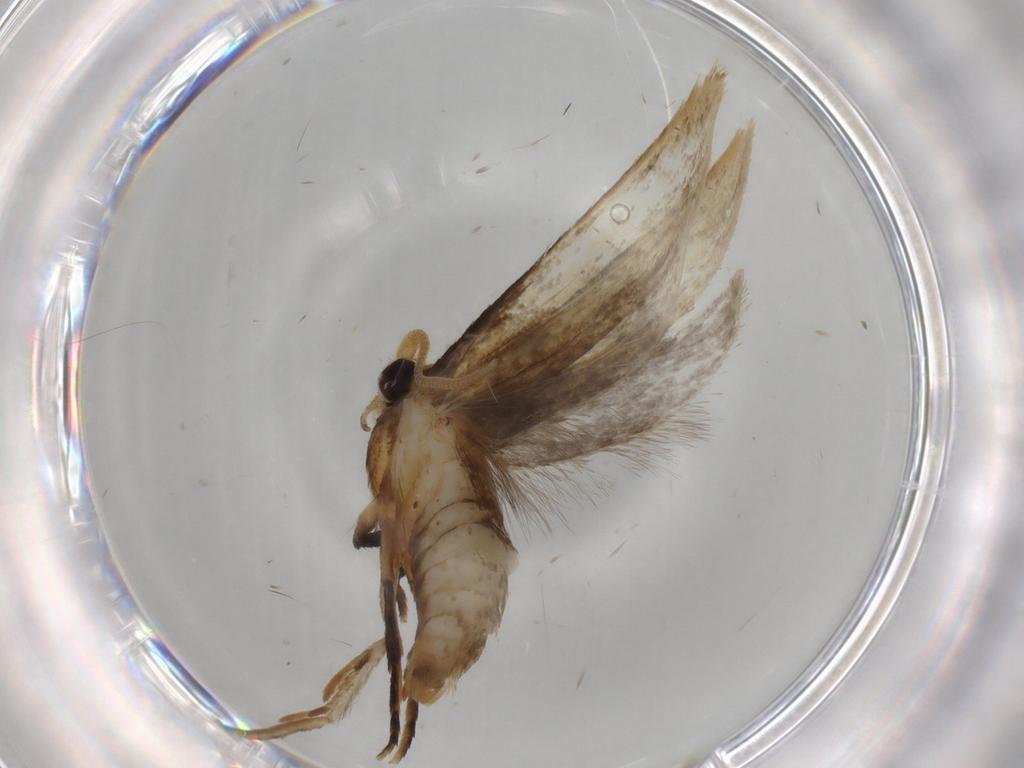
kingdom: Animalia
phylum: Arthropoda
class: Insecta
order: Lepidoptera
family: Tineidae
